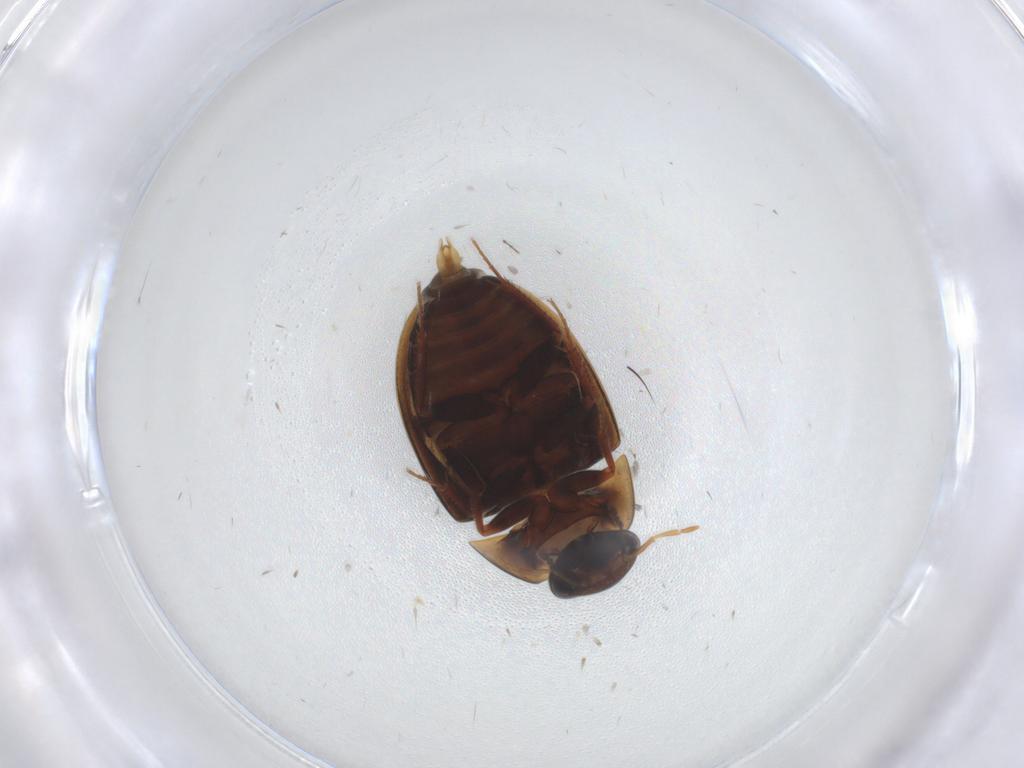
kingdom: Animalia
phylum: Arthropoda
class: Insecta
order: Coleoptera
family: Hydrophilidae
